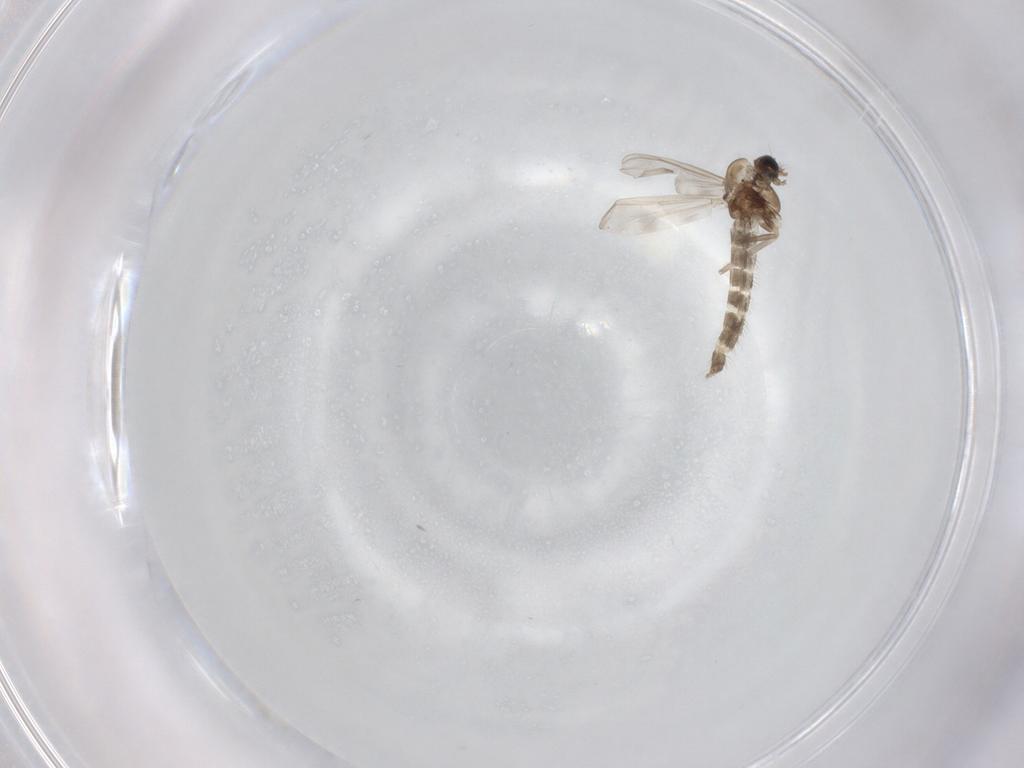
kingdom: Animalia
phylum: Arthropoda
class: Insecta
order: Diptera
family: Chironomidae
